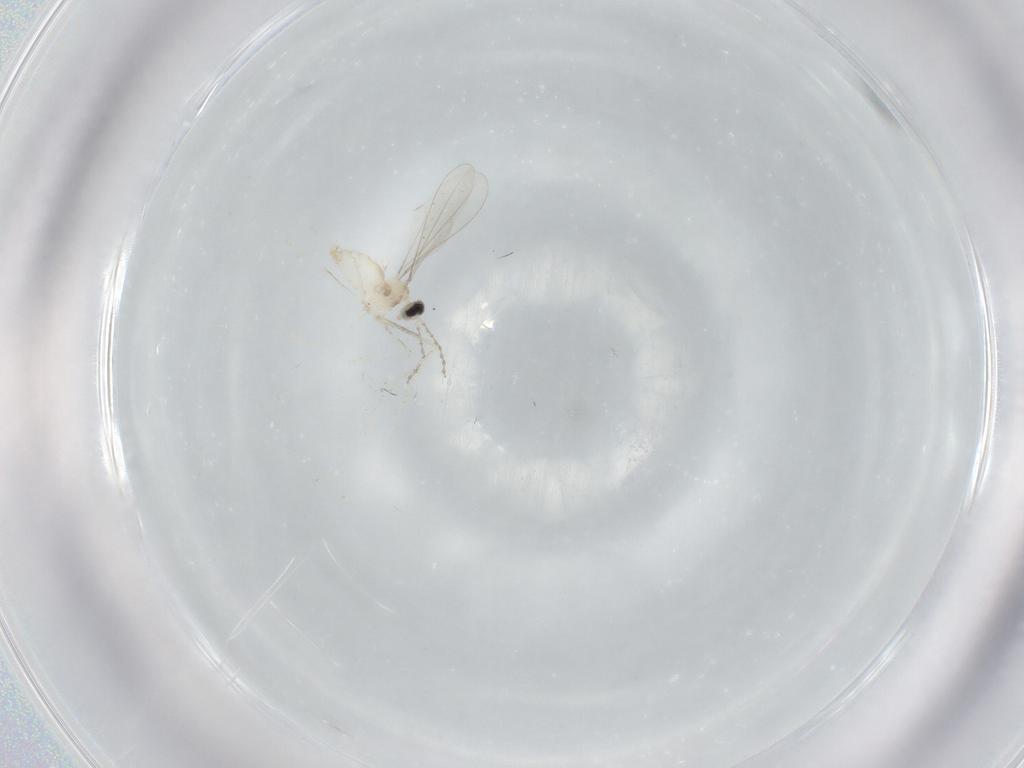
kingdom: Animalia
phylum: Arthropoda
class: Insecta
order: Diptera
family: Cecidomyiidae
